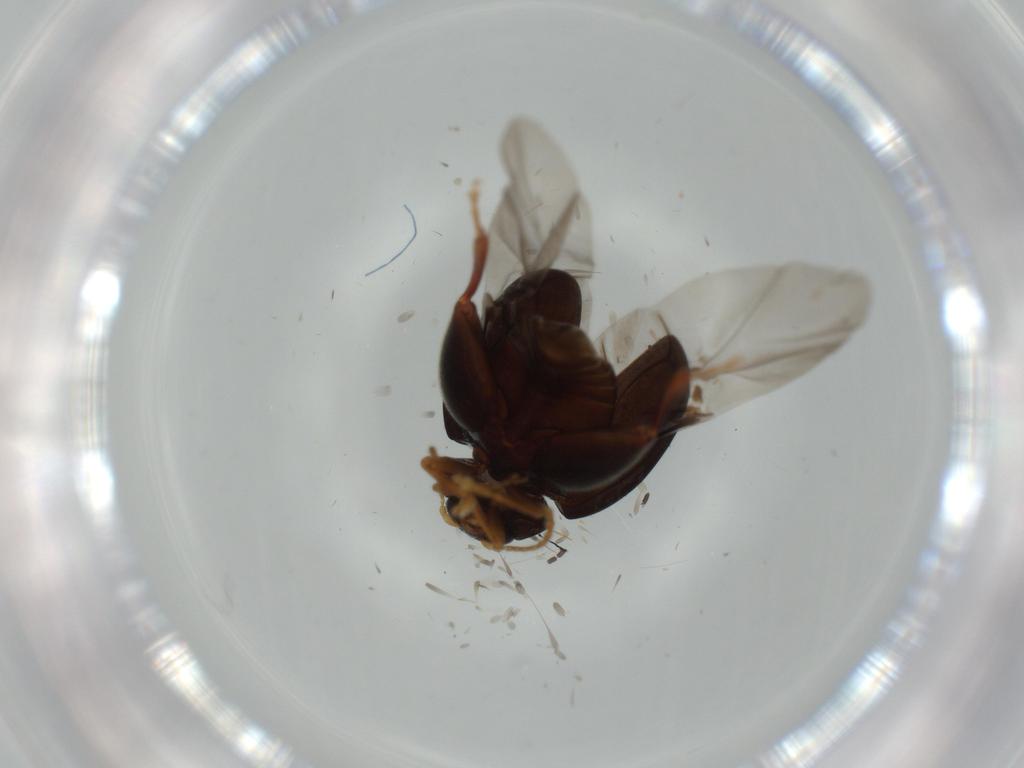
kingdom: Animalia
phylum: Arthropoda
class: Insecta
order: Coleoptera
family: Chrysomelidae
